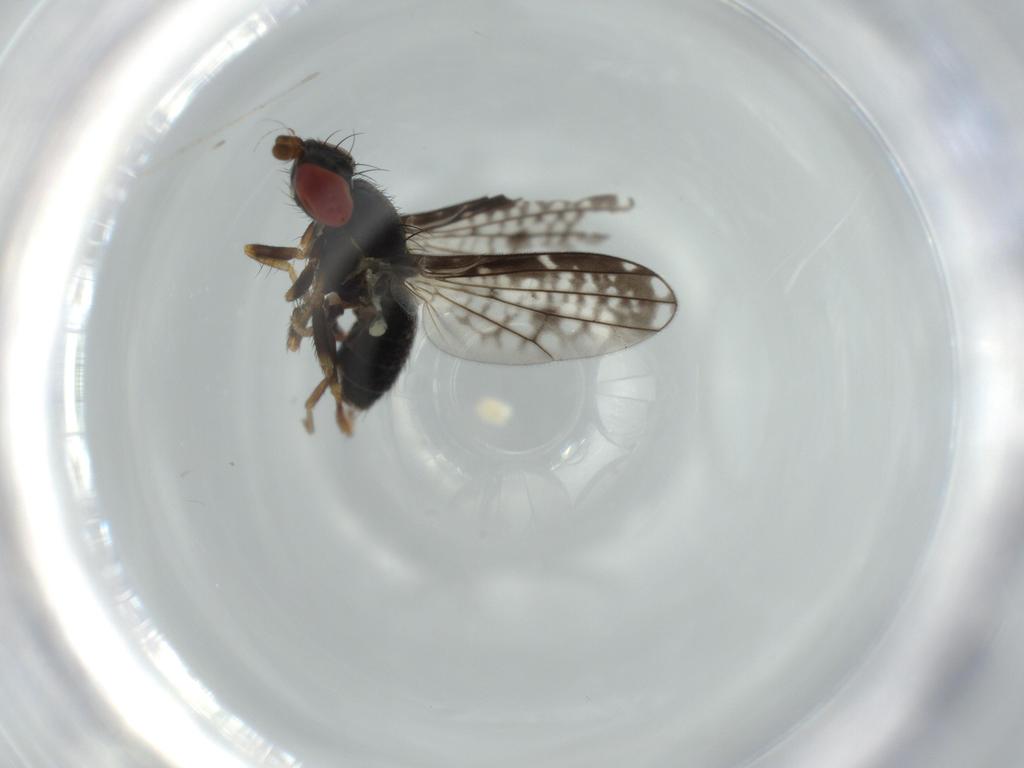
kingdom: Animalia
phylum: Arthropoda
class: Insecta
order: Diptera
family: Chamaemyiidae
